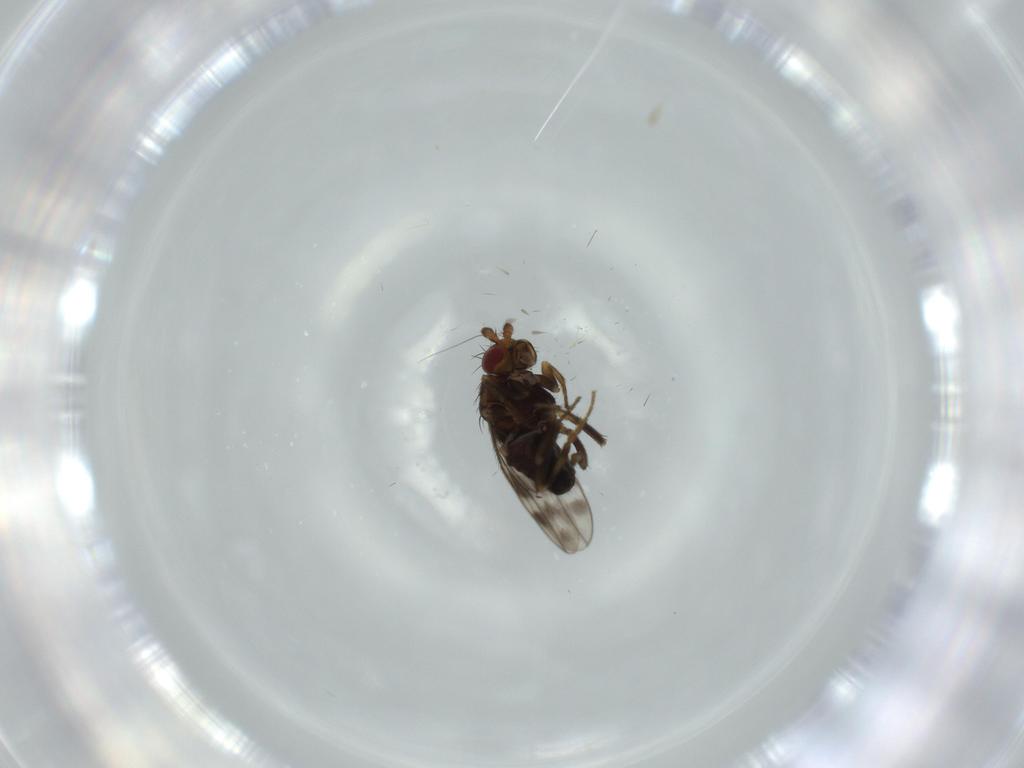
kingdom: Animalia
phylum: Arthropoda
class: Insecta
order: Diptera
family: Sphaeroceridae
